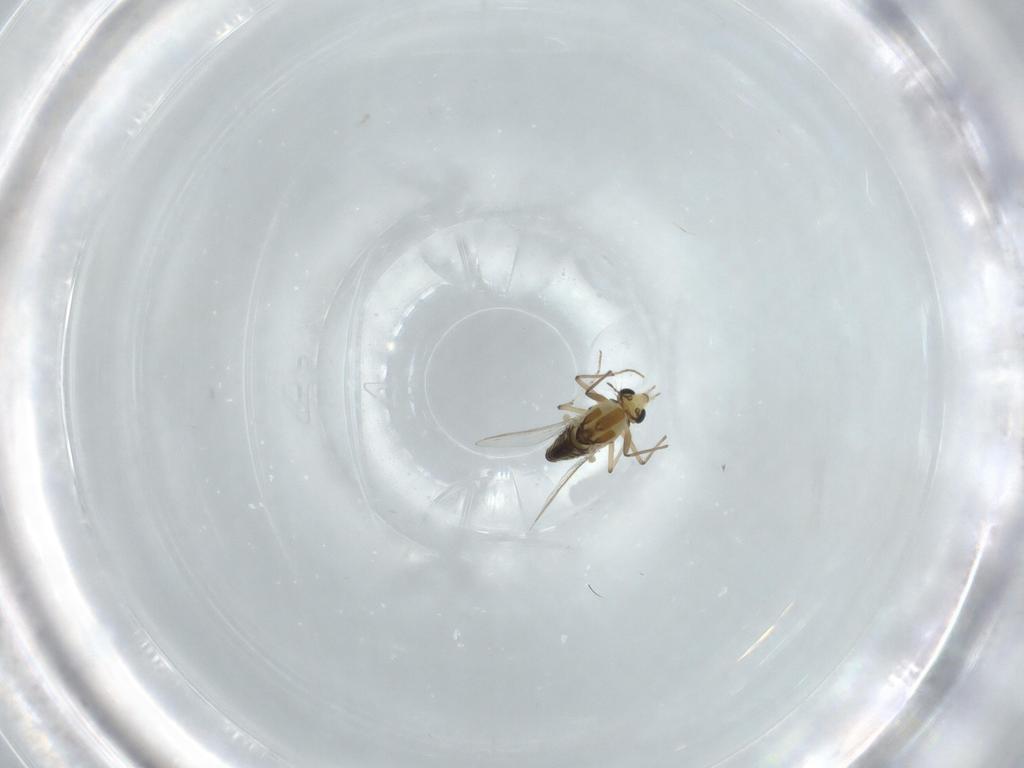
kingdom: Animalia
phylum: Arthropoda
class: Insecta
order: Diptera
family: Chironomidae
